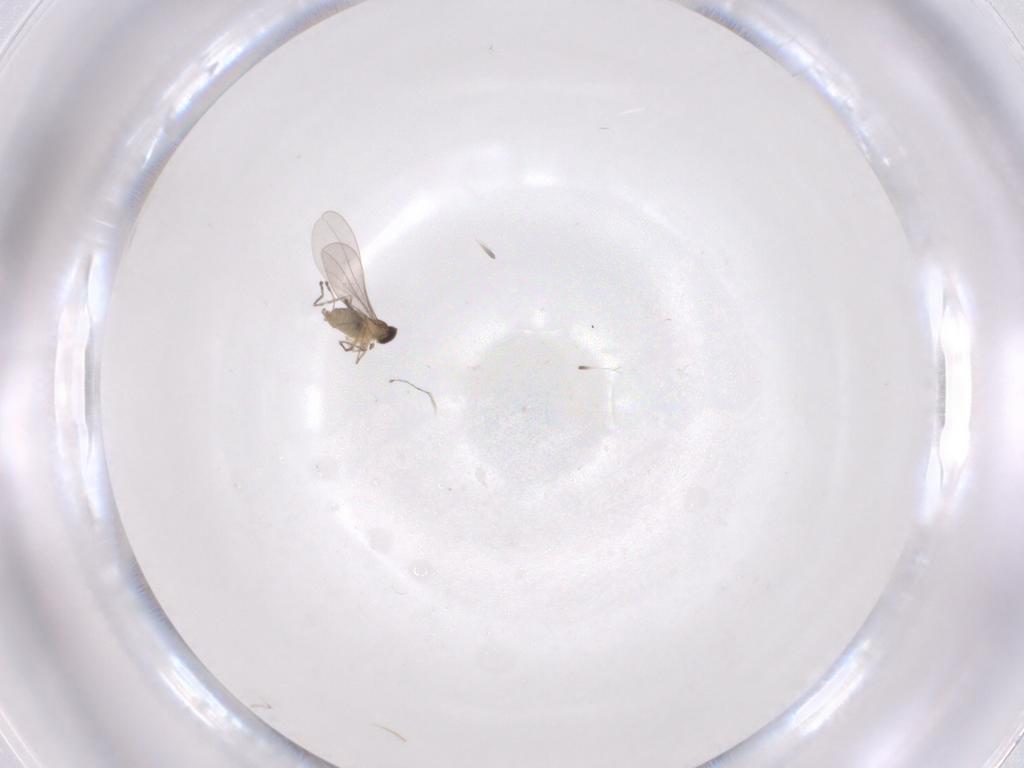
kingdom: Animalia
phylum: Arthropoda
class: Insecta
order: Diptera
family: Cecidomyiidae
